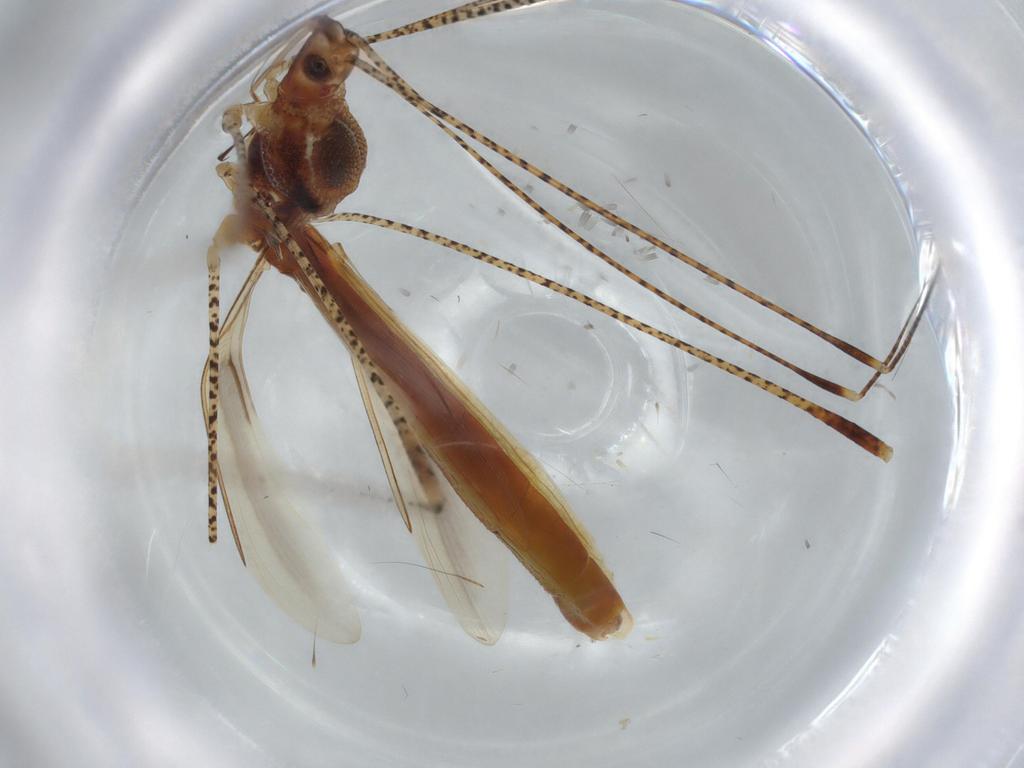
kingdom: Animalia
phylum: Arthropoda
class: Insecta
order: Hemiptera
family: Berytidae
